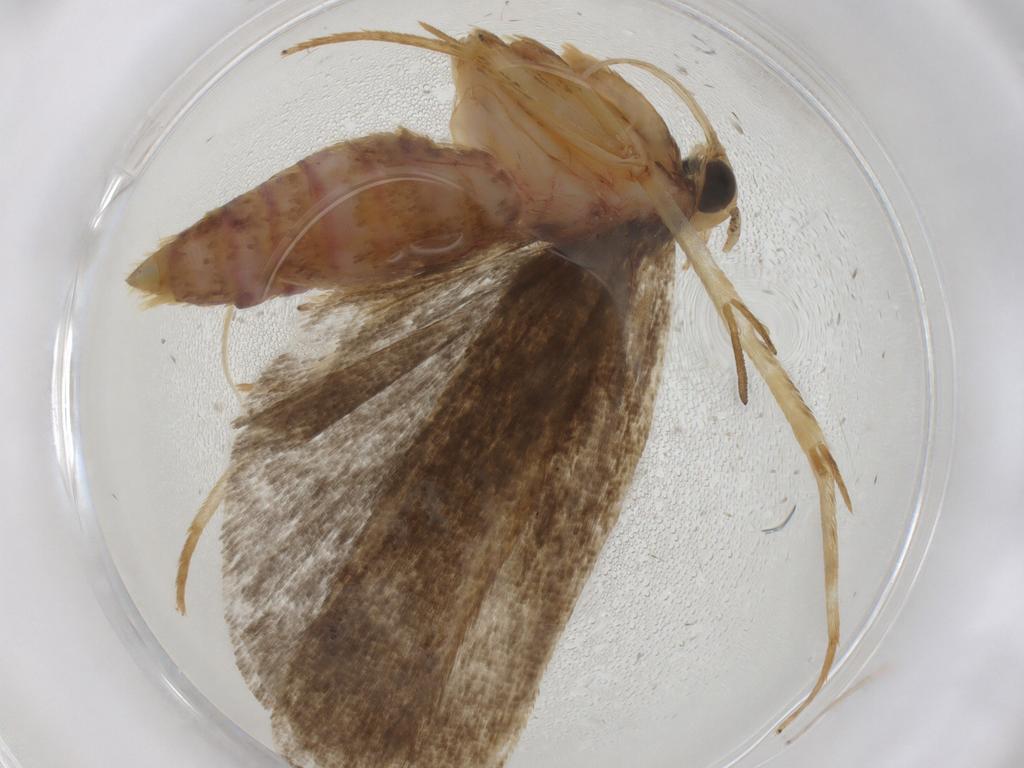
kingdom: Animalia
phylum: Arthropoda
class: Insecta
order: Lepidoptera
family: Autostichidae
